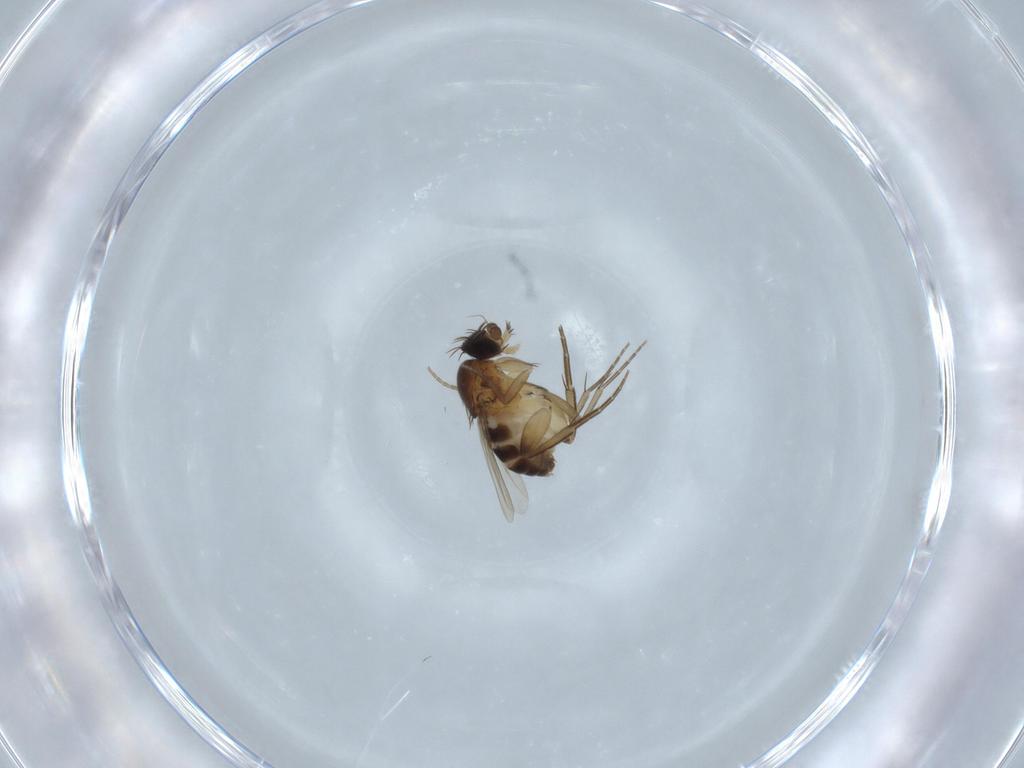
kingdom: Animalia
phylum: Arthropoda
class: Insecta
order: Diptera
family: Phoridae
